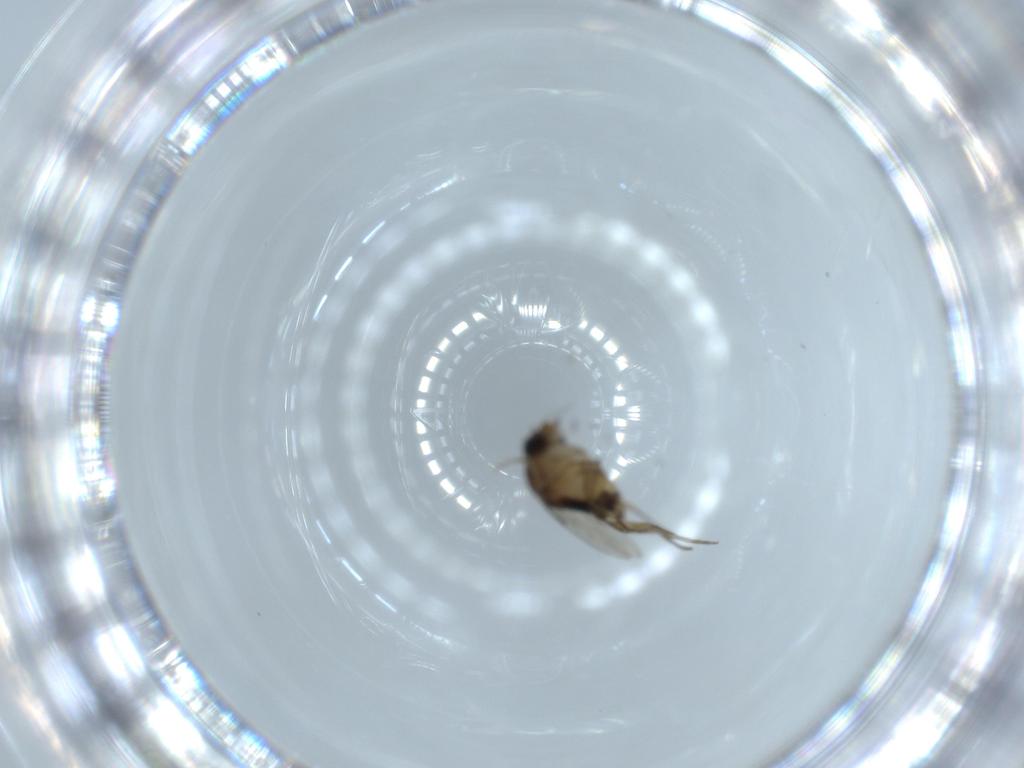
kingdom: Animalia
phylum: Arthropoda
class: Insecta
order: Diptera
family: Phoridae
